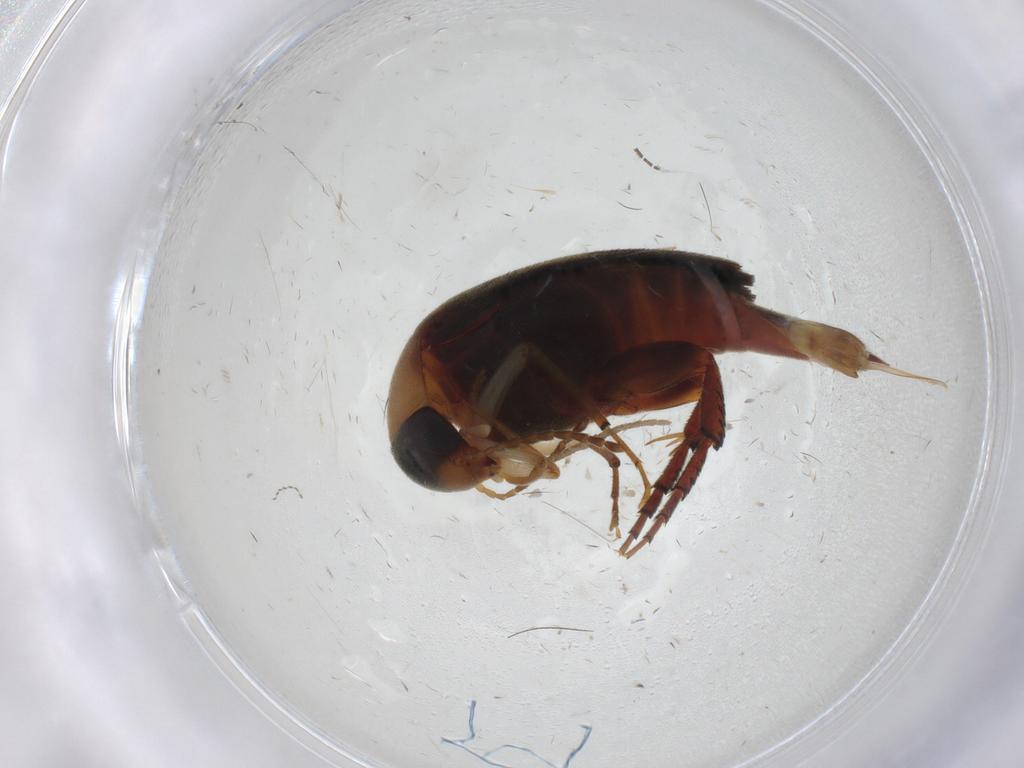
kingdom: Animalia
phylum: Arthropoda
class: Insecta
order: Coleoptera
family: Mordellidae
